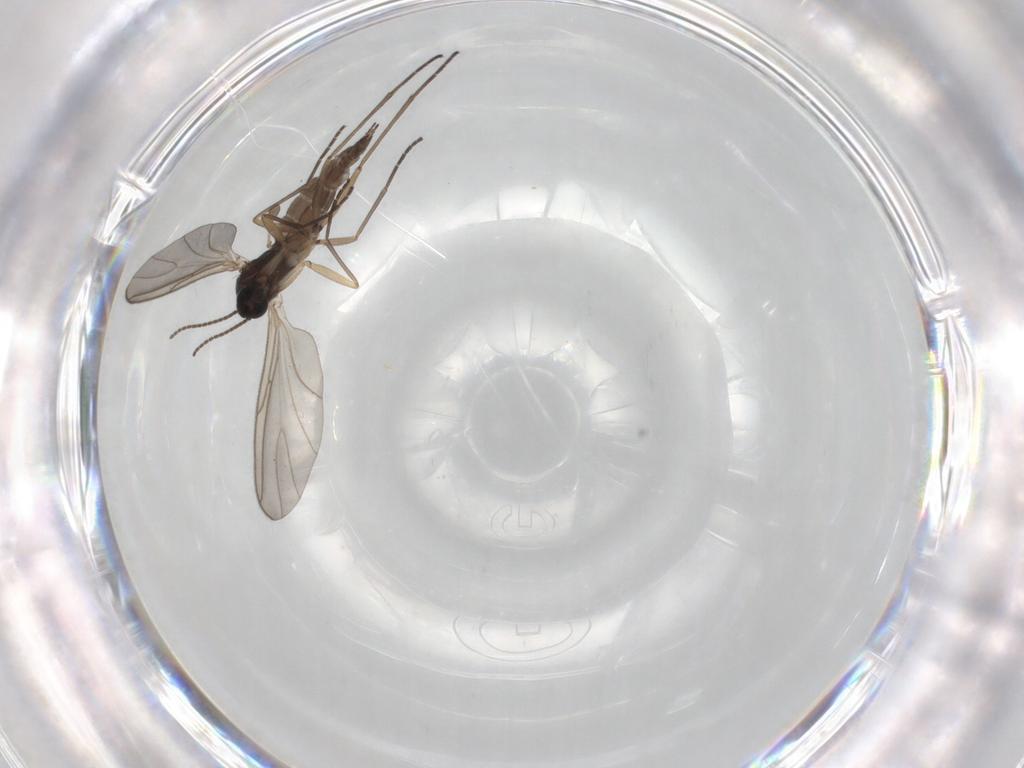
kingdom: Animalia
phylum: Arthropoda
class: Insecta
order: Diptera
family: Sciaridae
